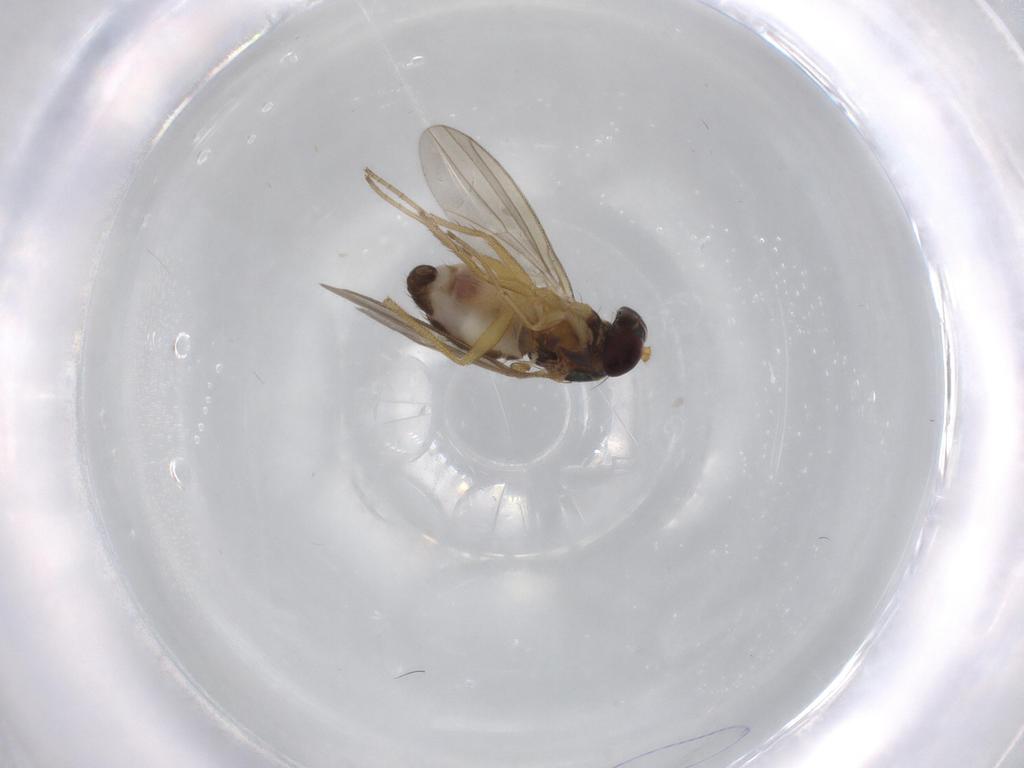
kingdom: Animalia
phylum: Arthropoda
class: Insecta
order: Diptera
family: Dolichopodidae
